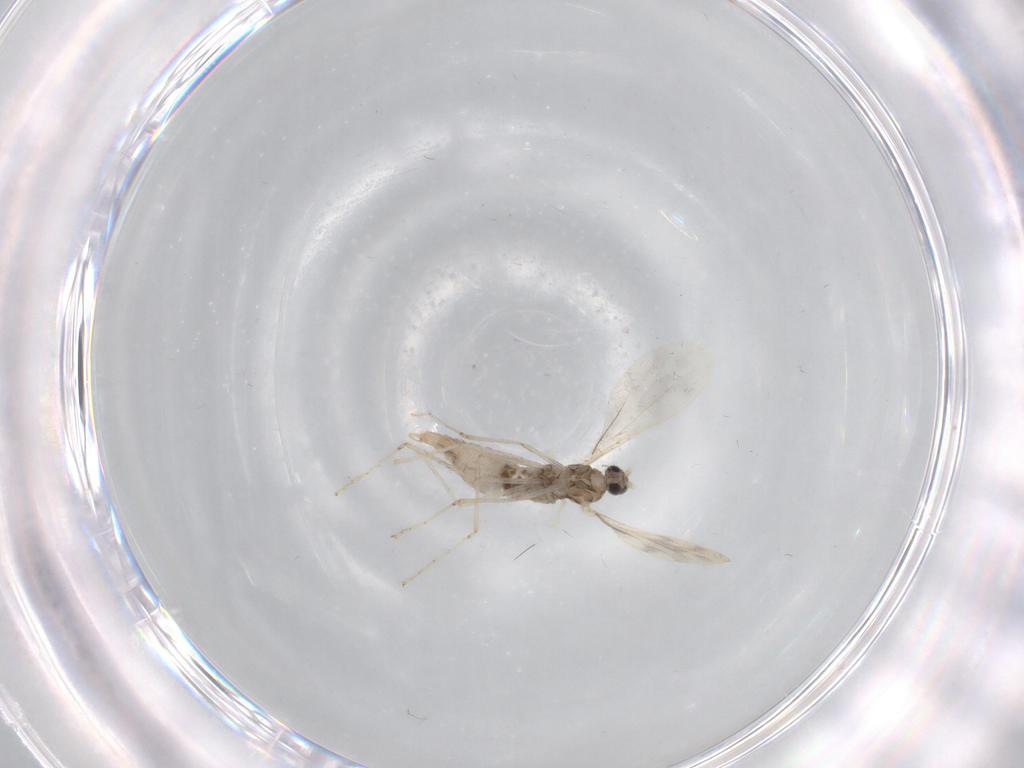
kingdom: Animalia
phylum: Arthropoda
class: Insecta
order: Diptera
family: Cecidomyiidae
